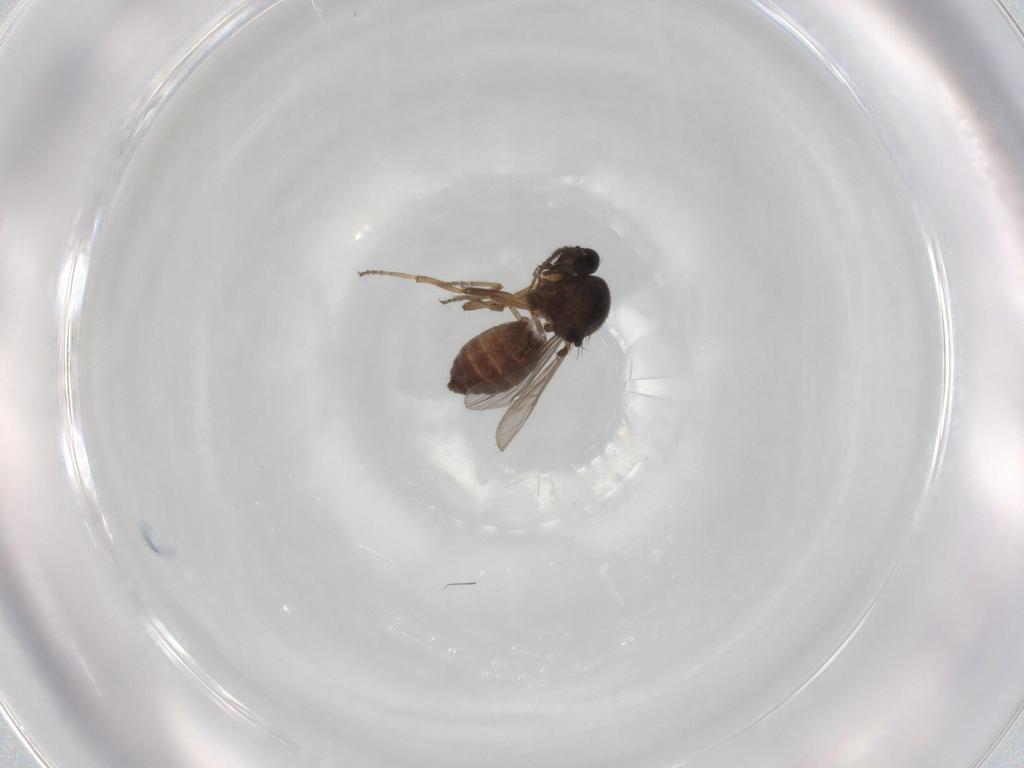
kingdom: Animalia
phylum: Arthropoda
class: Insecta
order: Diptera
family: Ceratopogonidae
